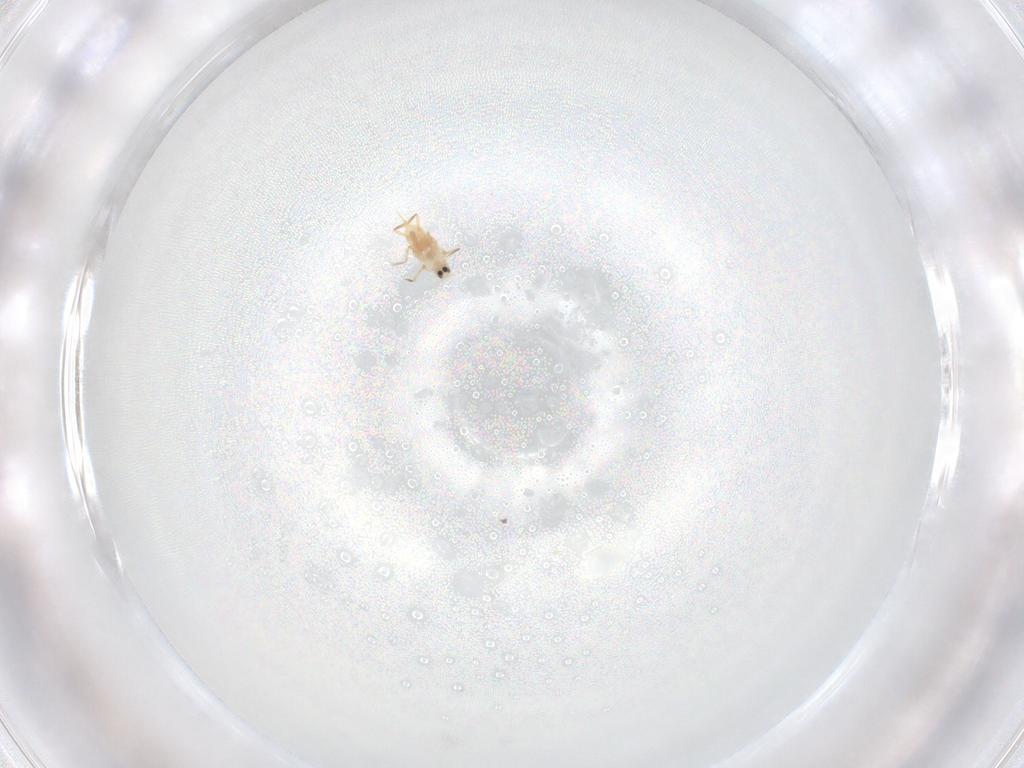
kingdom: Animalia
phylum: Arthropoda
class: Insecta
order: Hemiptera
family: Diaspididae
